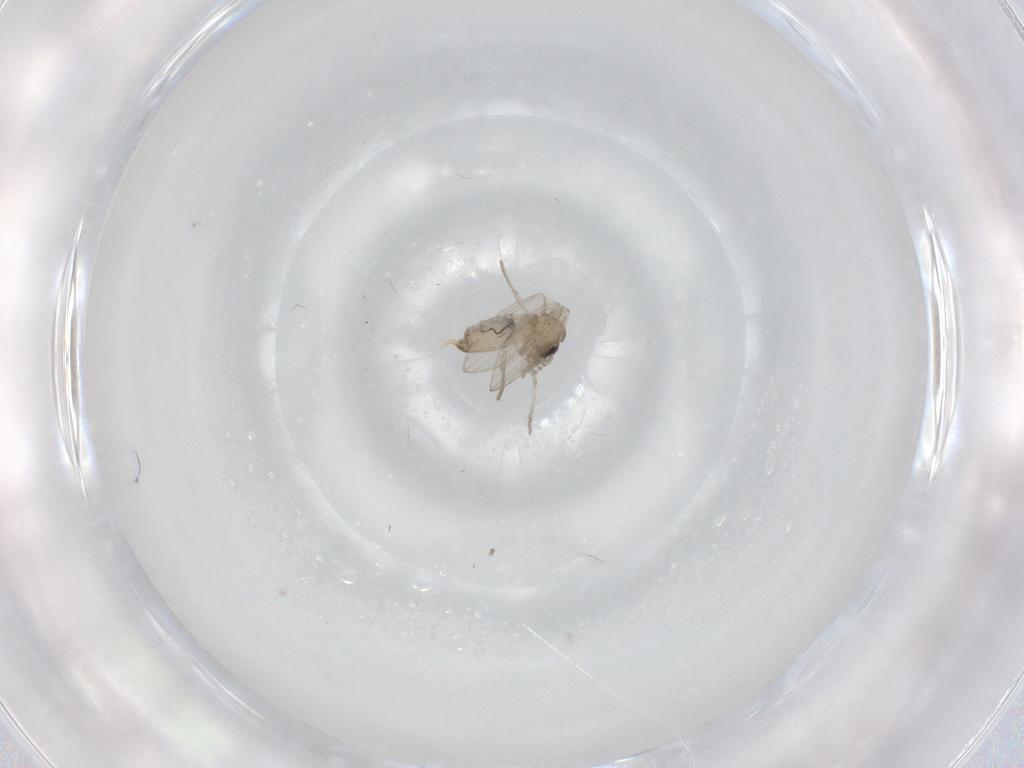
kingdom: Animalia
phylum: Arthropoda
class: Insecta
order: Diptera
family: Psychodidae
